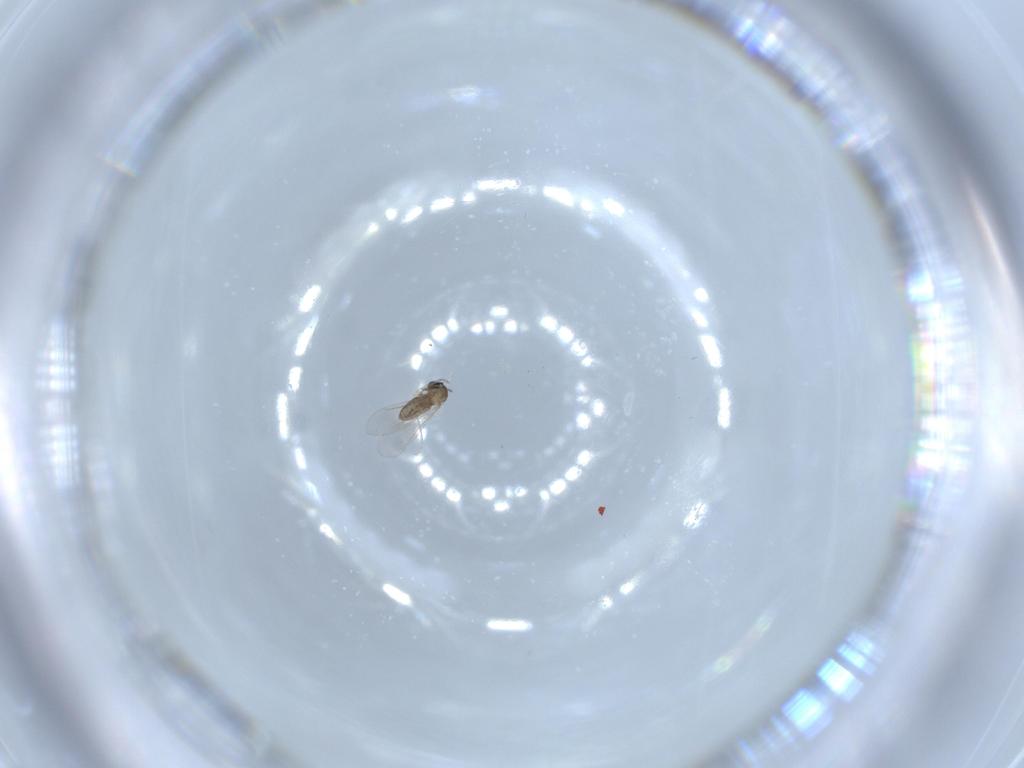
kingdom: Animalia
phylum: Arthropoda
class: Insecta
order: Diptera
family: Cecidomyiidae
